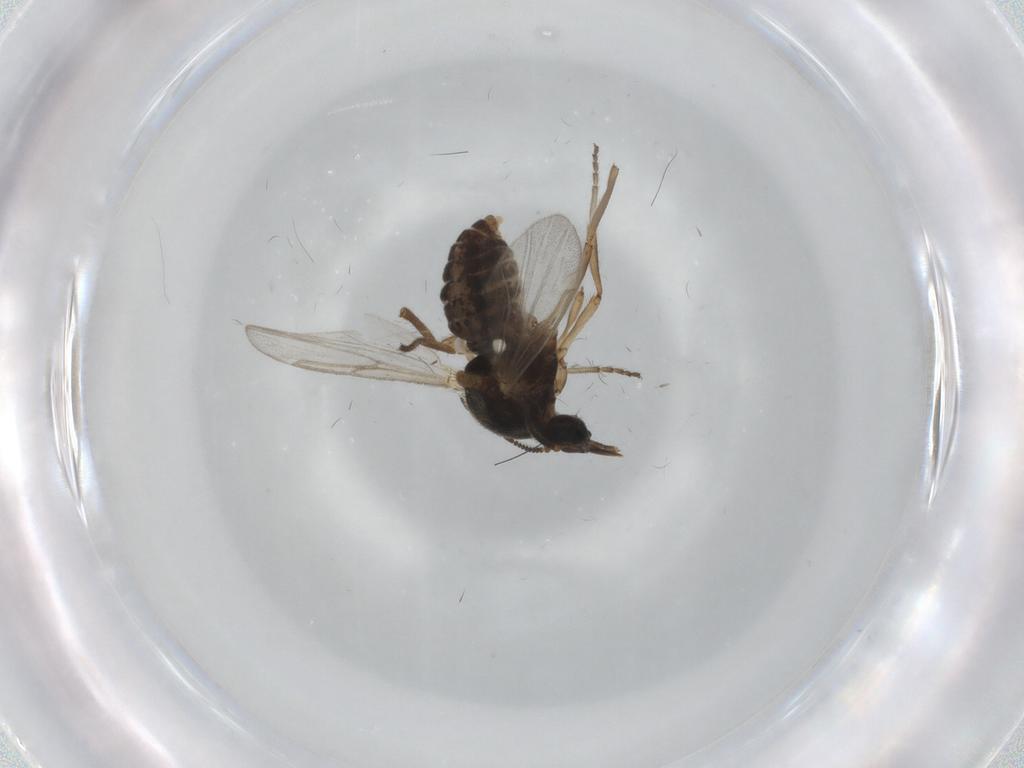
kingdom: Animalia
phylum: Arthropoda
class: Insecta
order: Diptera
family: Ceratopogonidae
